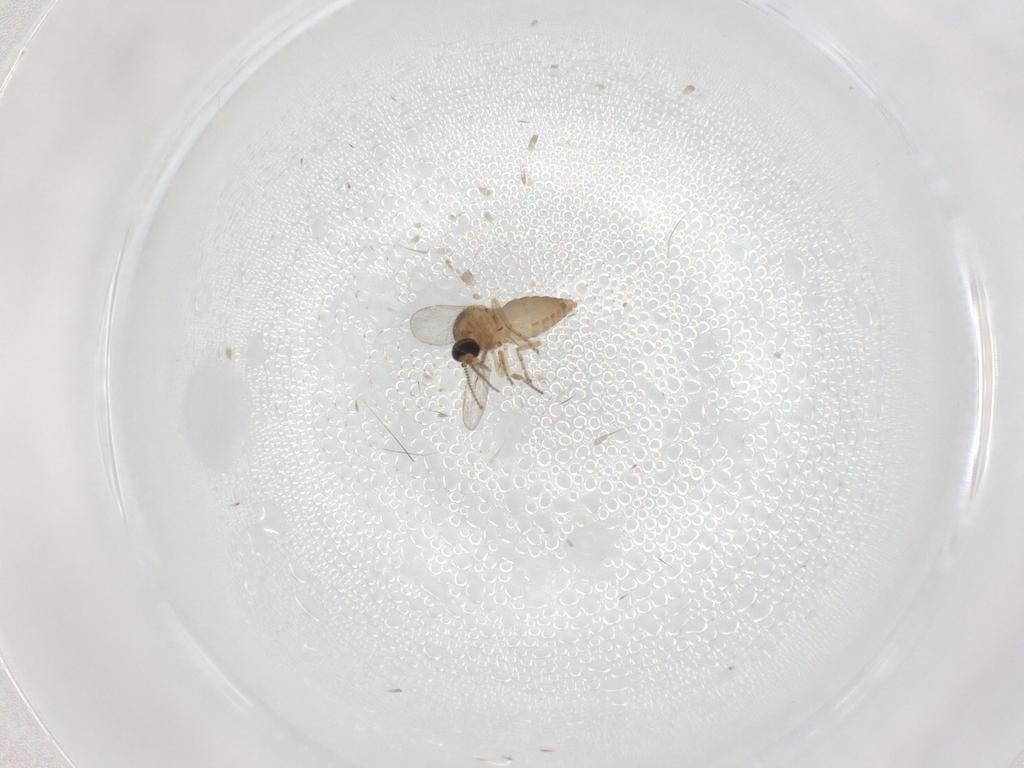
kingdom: Animalia
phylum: Arthropoda
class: Insecta
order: Diptera
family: Ceratopogonidae
